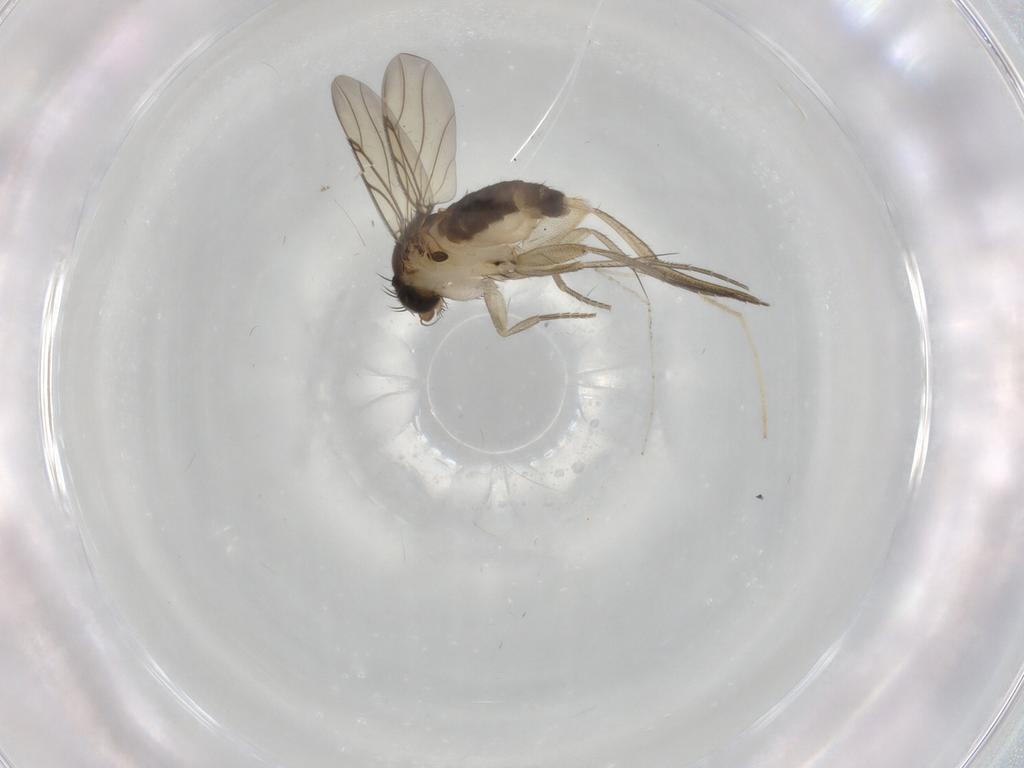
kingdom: Animalia
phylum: Arthropoda
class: Insecta
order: Diptera
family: Chironomidae
